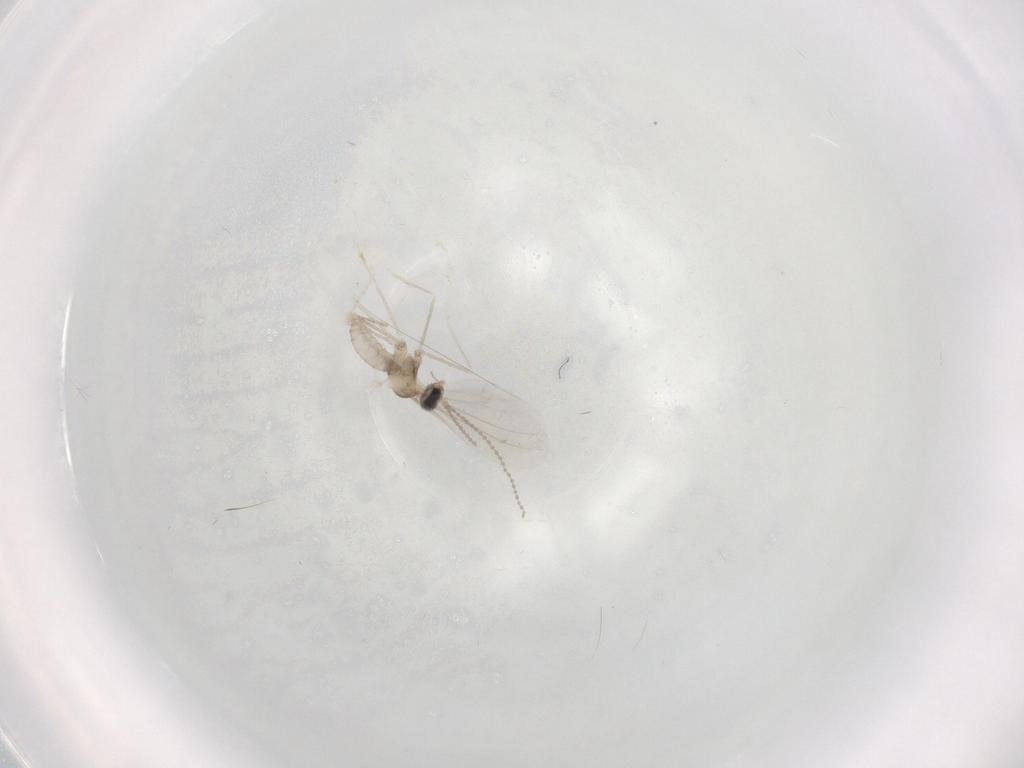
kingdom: Animalia
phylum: Arthropoda
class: Insecta
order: Diptera
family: Cecidomyiidae
